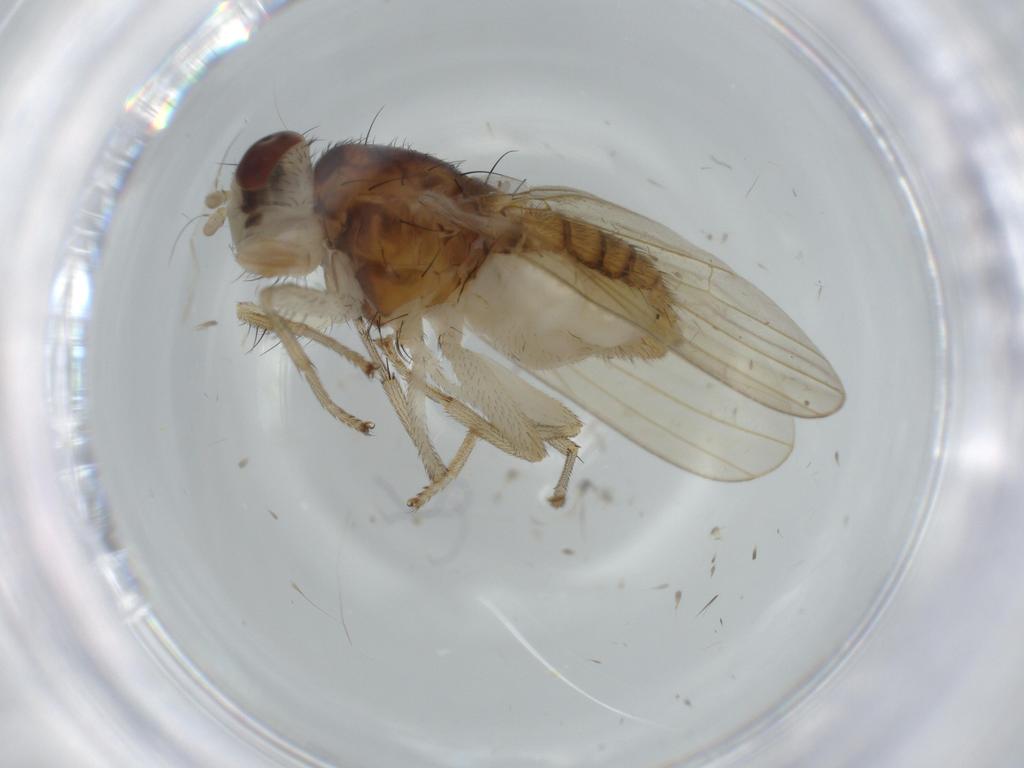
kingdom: Animalia
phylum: Arthropoda
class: Insecta
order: Diptera
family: Lauxaniidae
